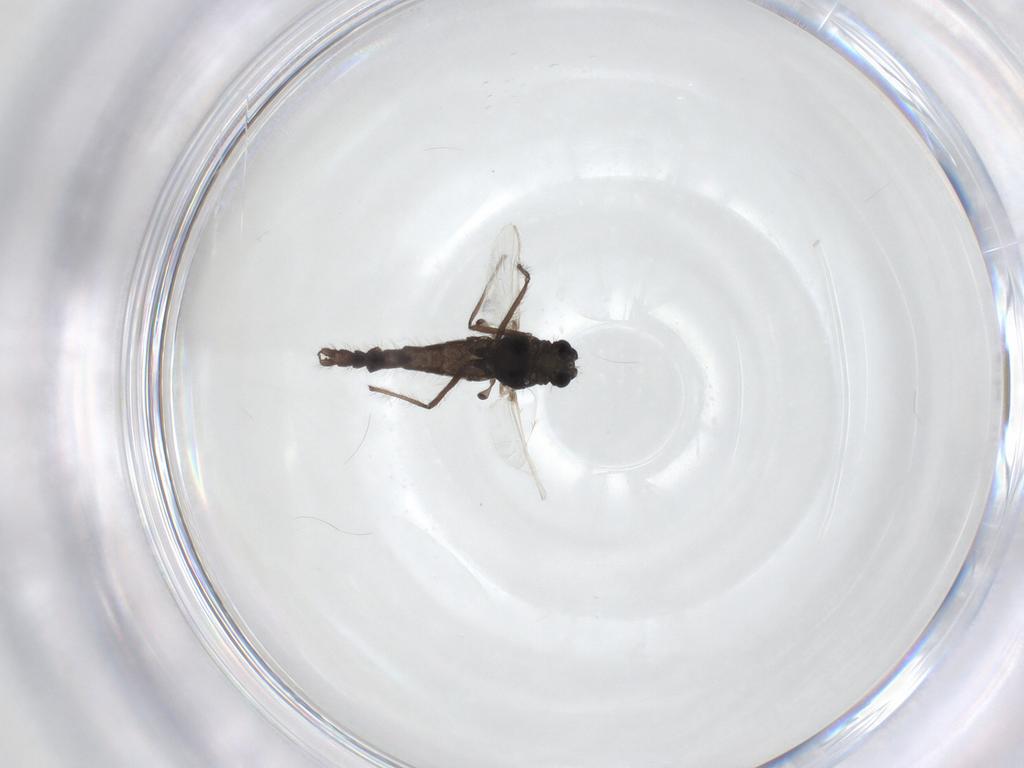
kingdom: Animalia
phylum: Arthropoda
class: Insecta
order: Diptera
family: Chironomidae
